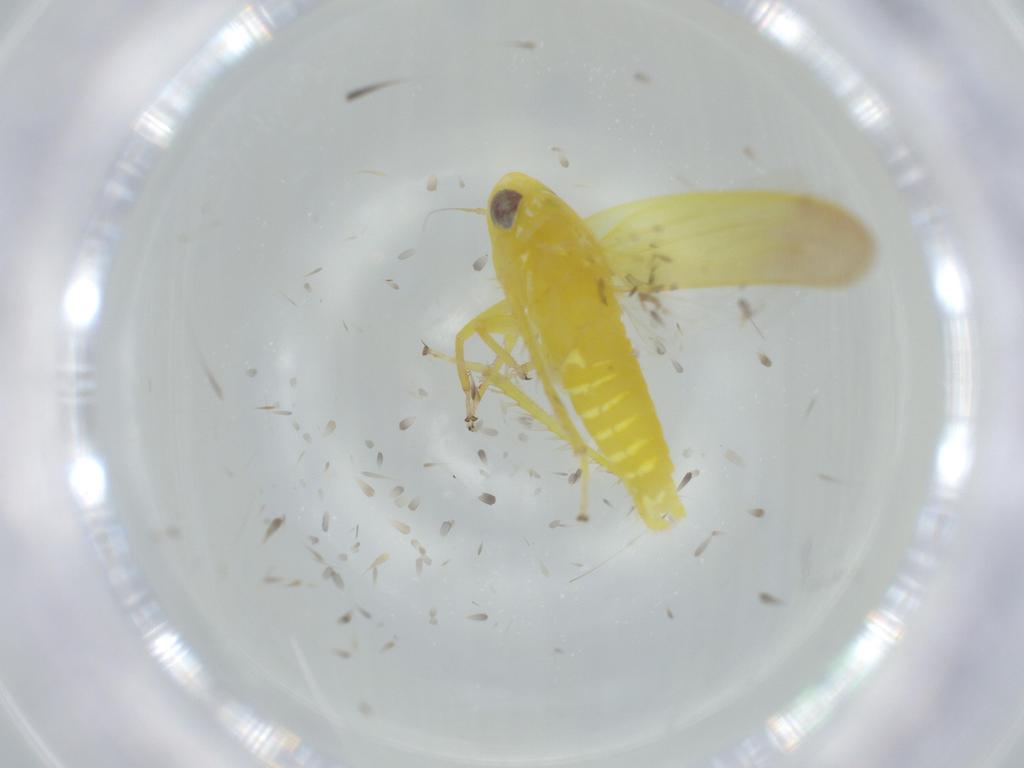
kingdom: Animalia
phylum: Arthropoda
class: Insecta
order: Hemiptera
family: Cicadellidae
